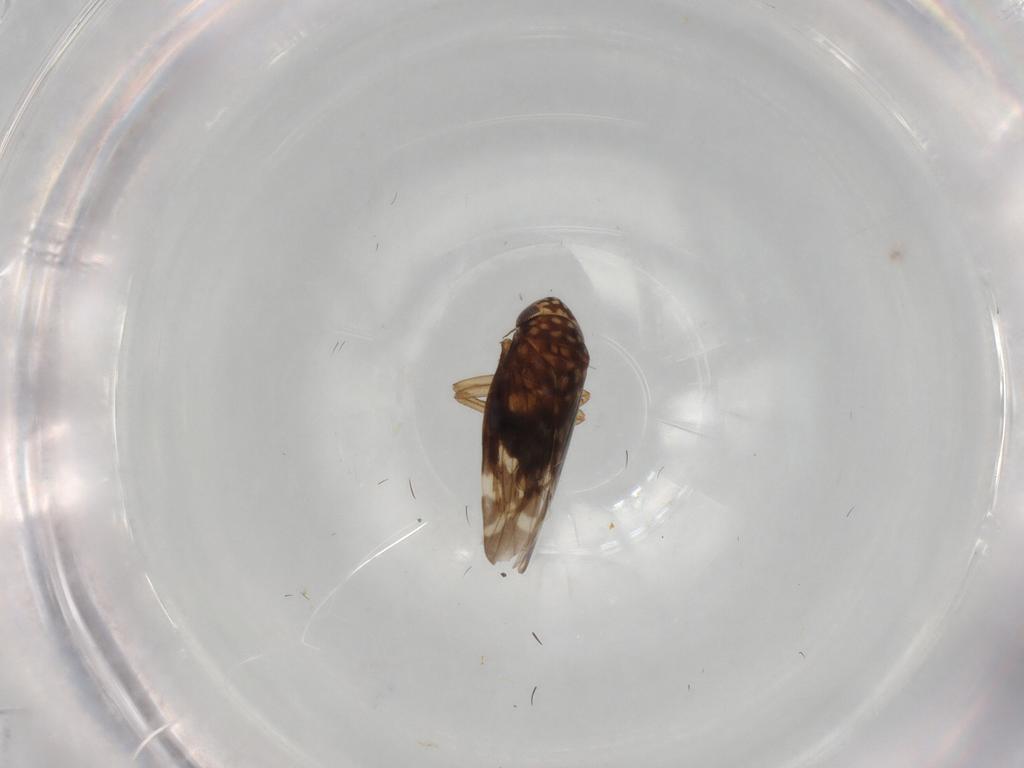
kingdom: Animalia
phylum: Arthropoda
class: Insecta
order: Hemiptera
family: Cicadellidae
